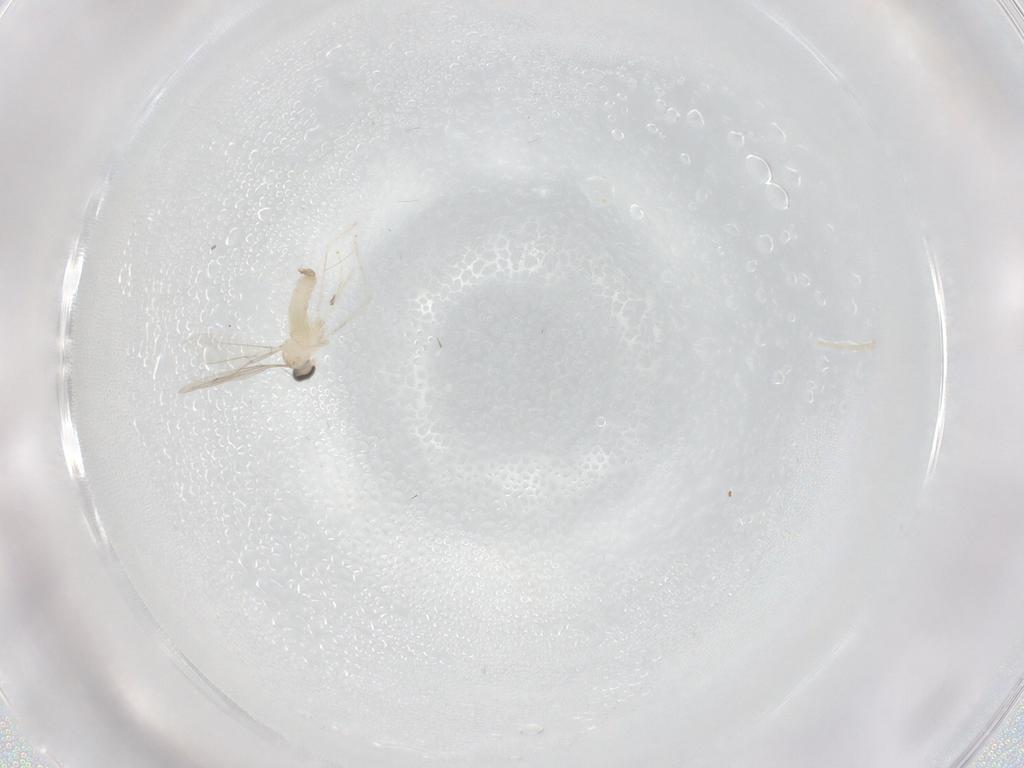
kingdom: Animalia
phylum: Arthropoda
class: Insecta
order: Diptera
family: Cecidomyiidae
